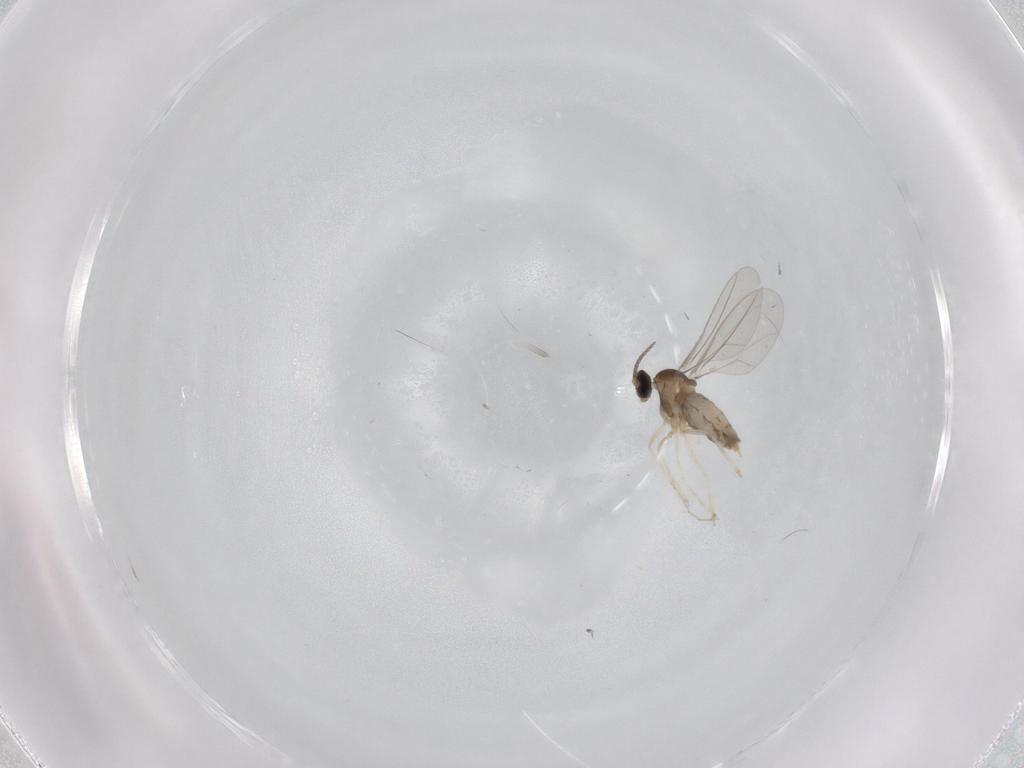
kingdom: Animalia
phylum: Arthropoda
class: Insecta
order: Diptera
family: Cecidomyiidae
